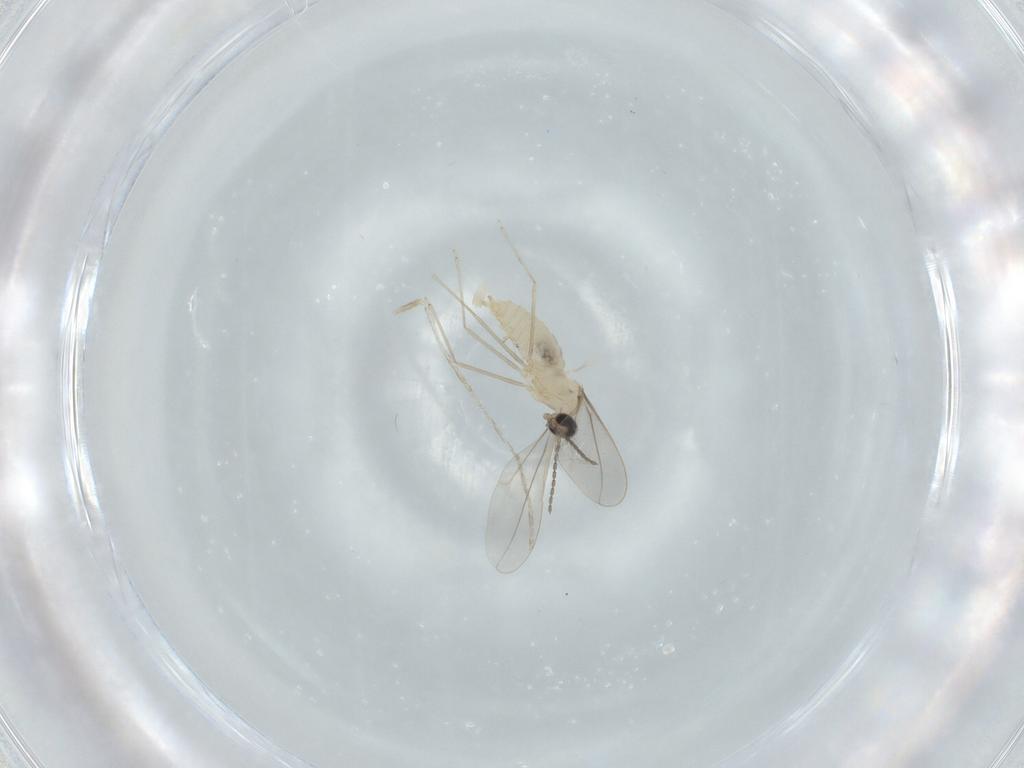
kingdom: Animalia
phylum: Arthropoda
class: Insecta
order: Diptera
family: Cecidomyiidae
